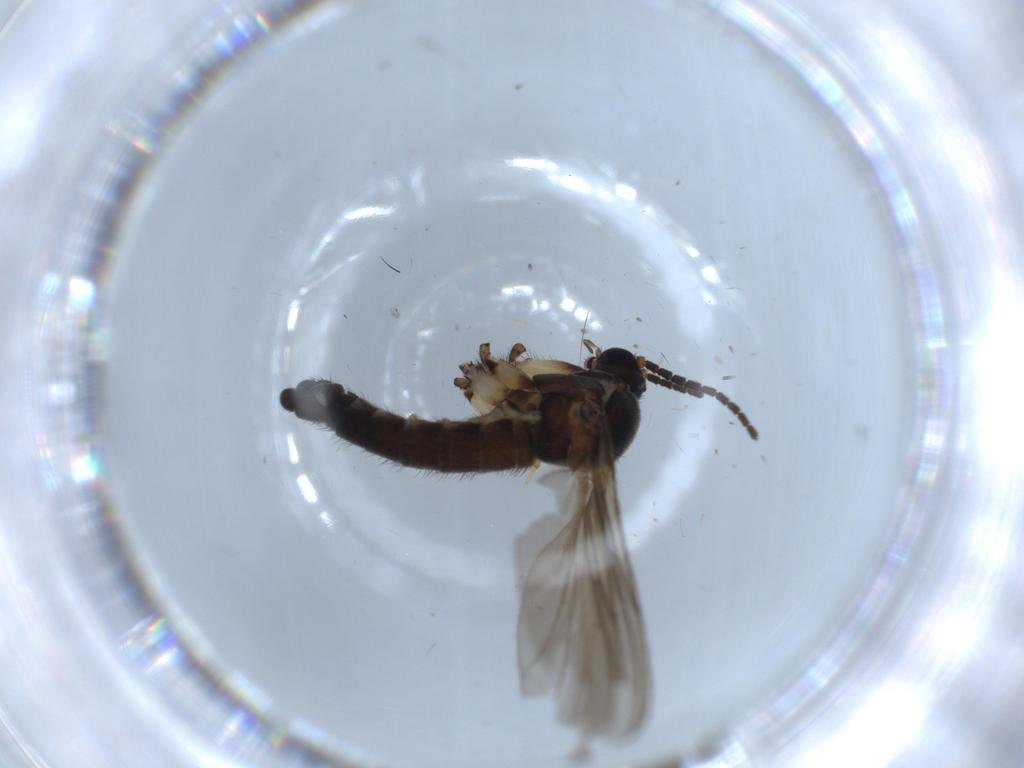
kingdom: Animalia
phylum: Arthropoda
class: Insecta
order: Diptera
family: Sciaridae
